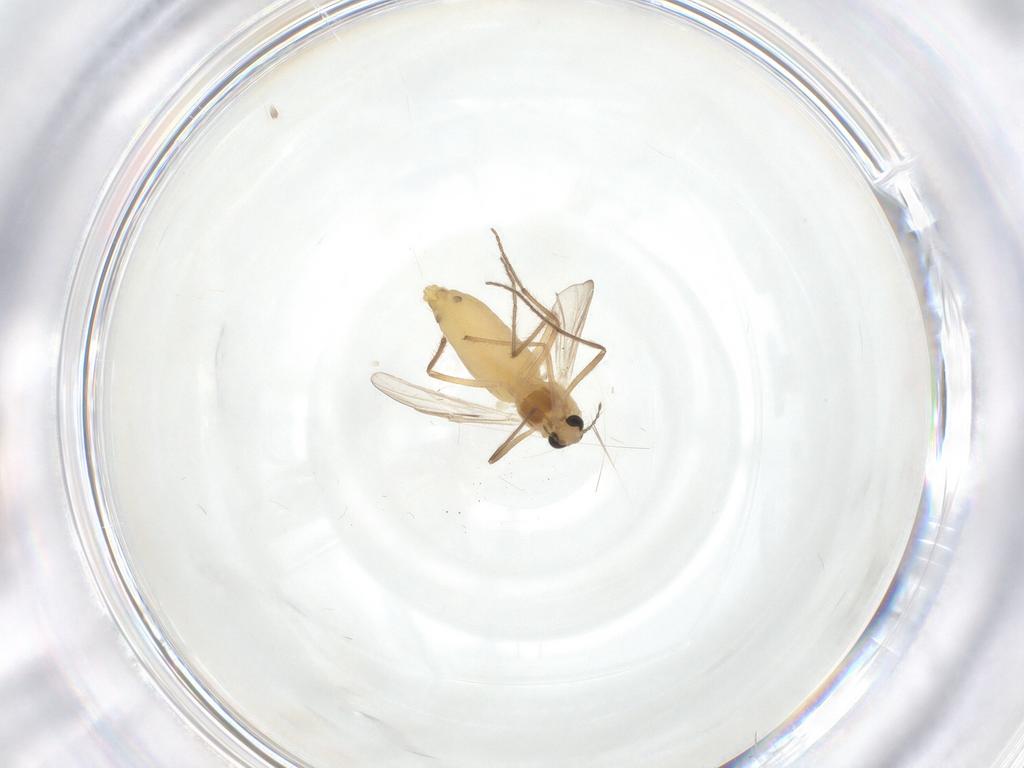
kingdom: Animalia
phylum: Arthropoda
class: Insecta
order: Diptera
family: Chironomidae
